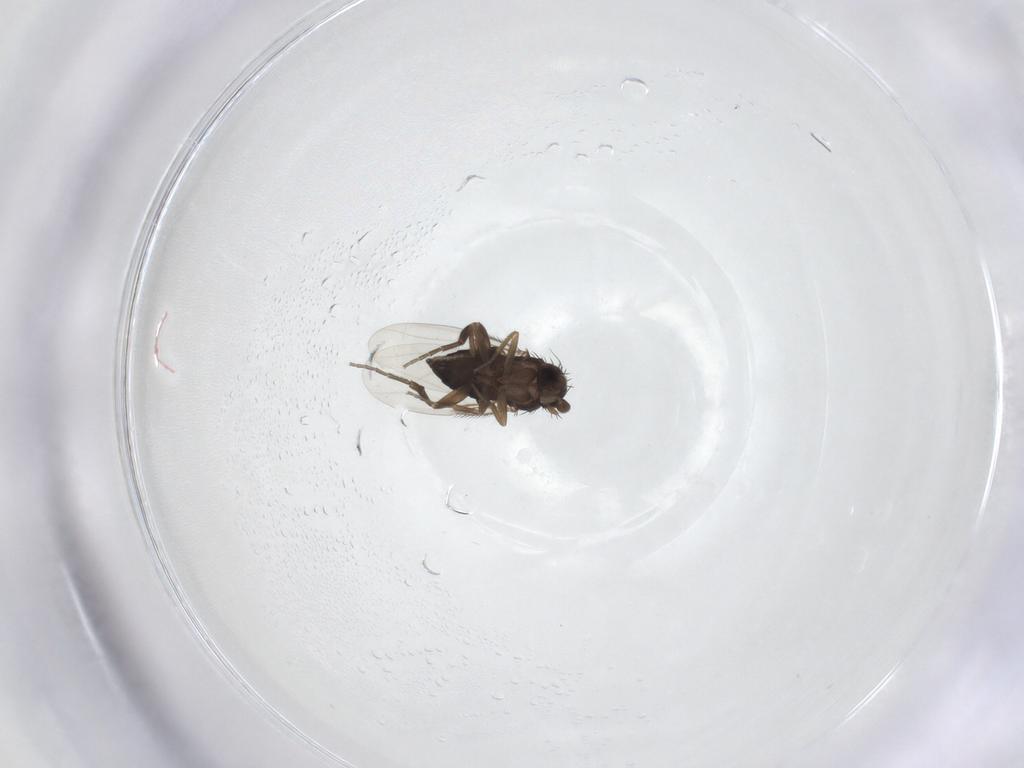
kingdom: Animalia
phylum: Arthropoda
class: Insecta
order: Diptera
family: Phoridae
